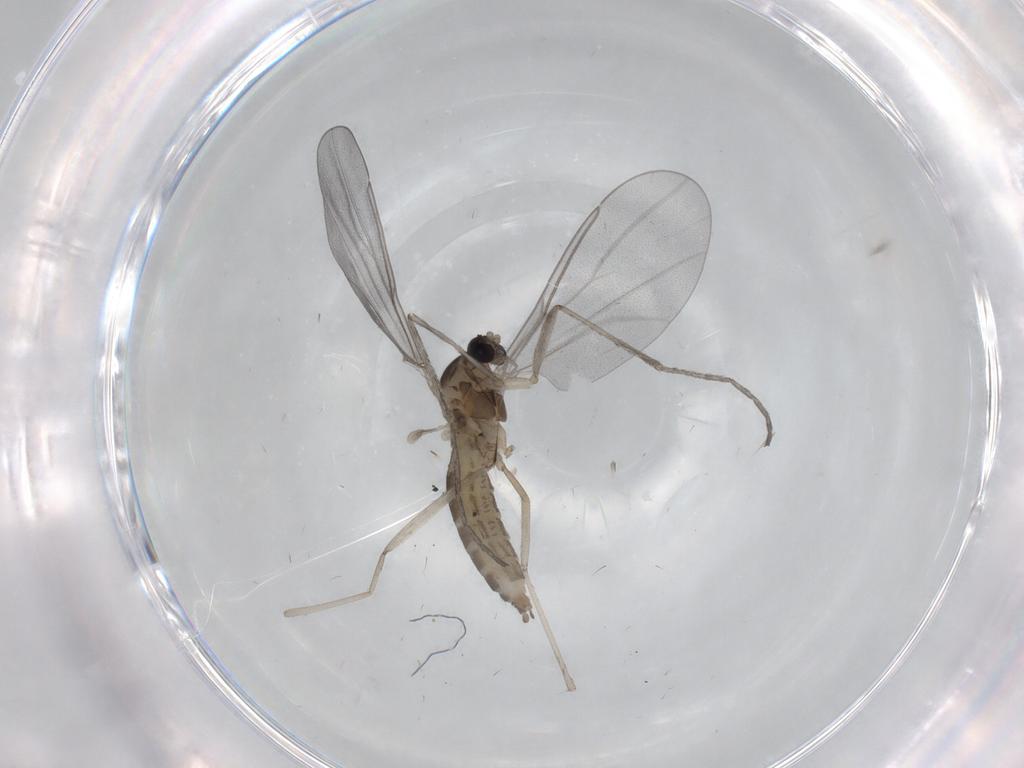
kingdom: Animalia
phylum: Arthropoda
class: Insecta
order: Diptera
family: Cecidomyiidae
